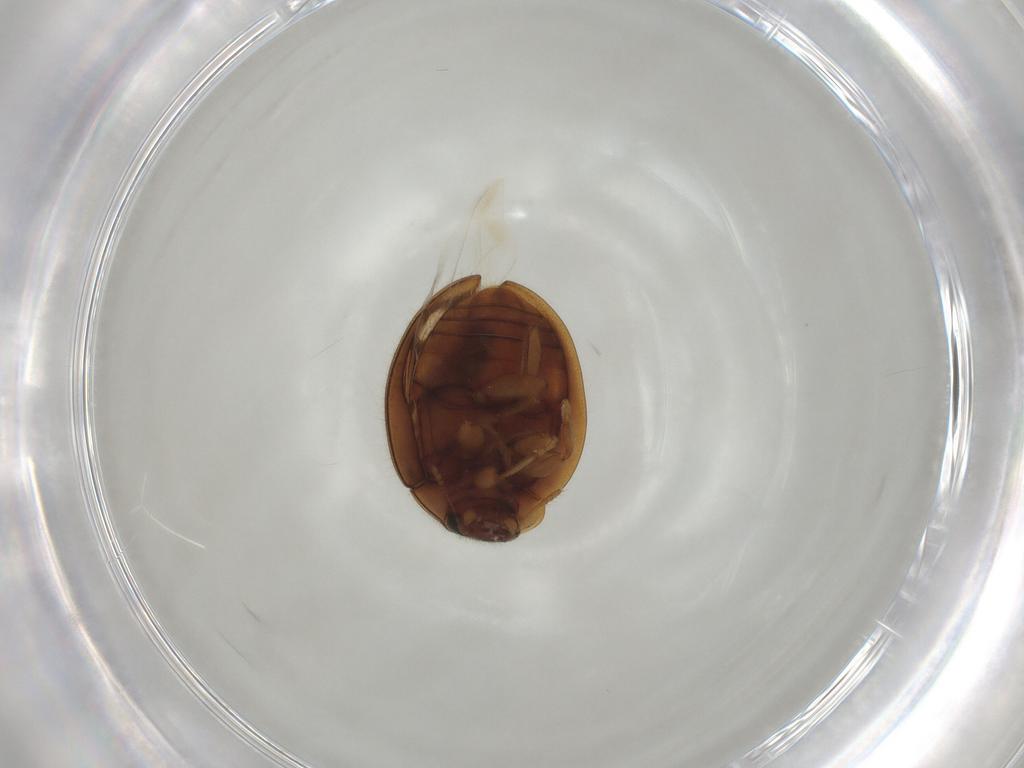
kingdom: Animalia
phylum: Arthropoda
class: Insecta
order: Coleoptera
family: Coccinellidae
